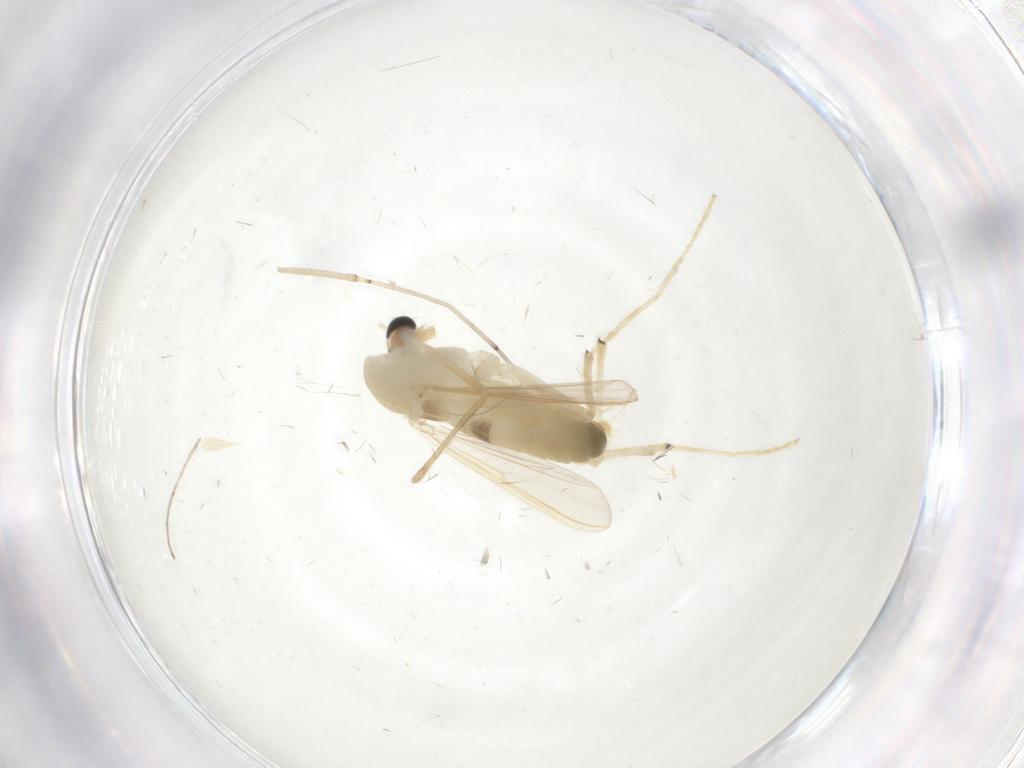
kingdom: Animalia
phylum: Arthropoda
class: Insecta
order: Diptera
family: Chironomidae
